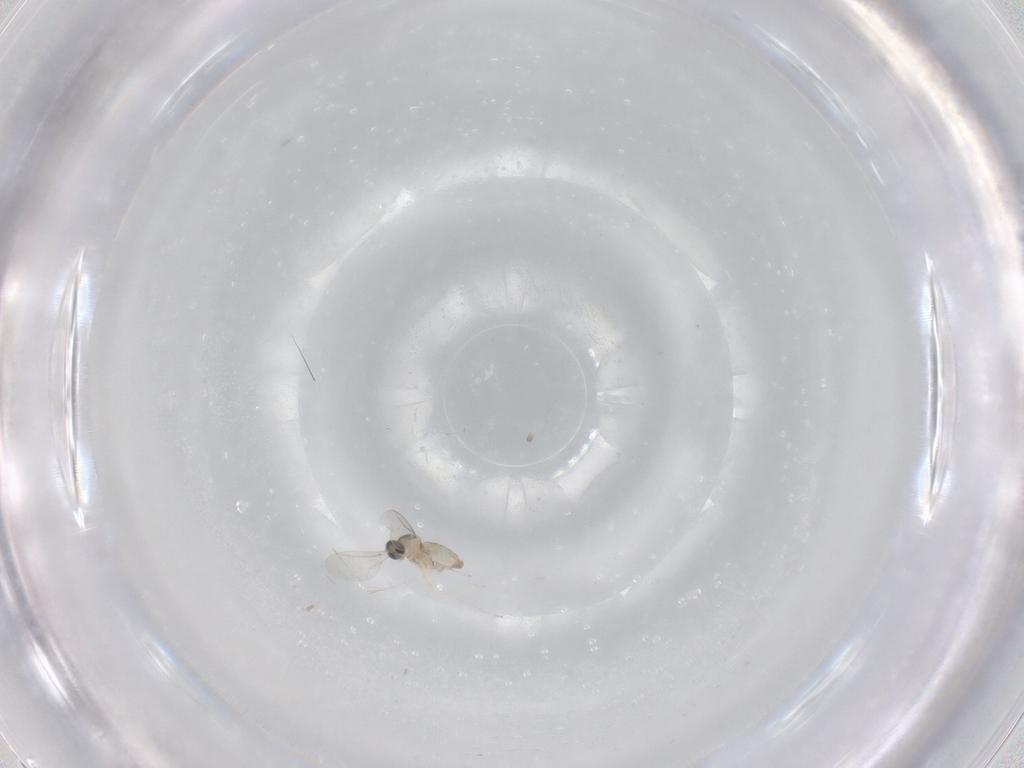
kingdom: Animalia
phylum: Arthropoda
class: Insecta
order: Diptera
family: Cecidomyiidae
